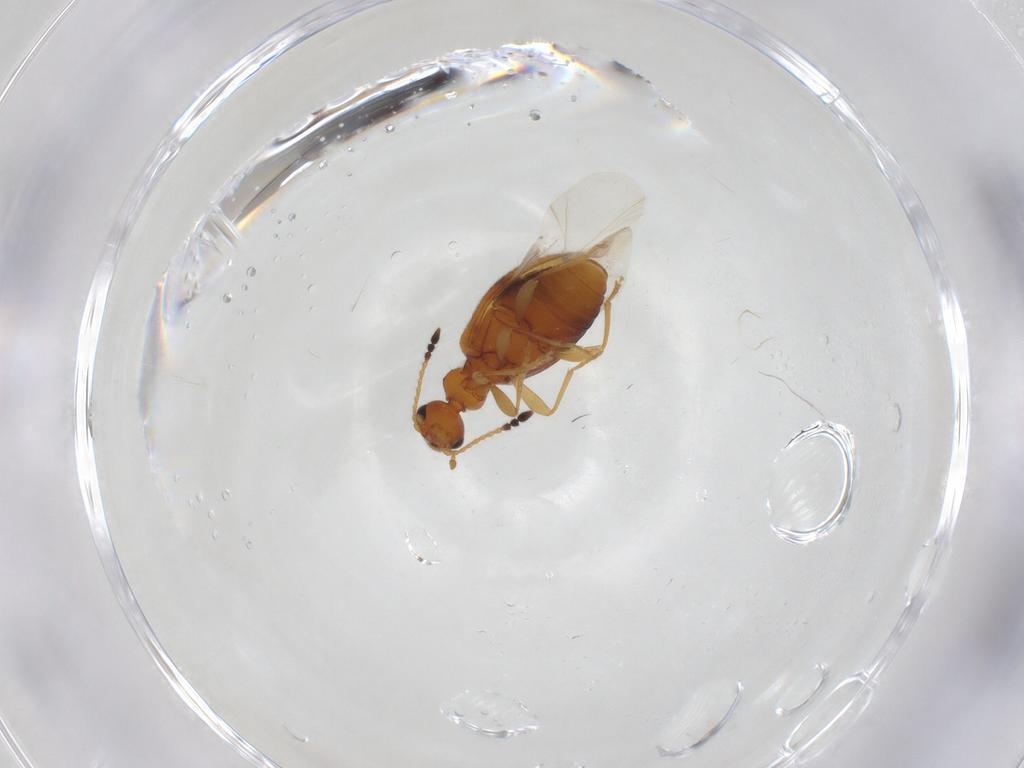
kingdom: Animalia
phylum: Arthropoda
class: Insecta
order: Coleoptera
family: Anthicidae
